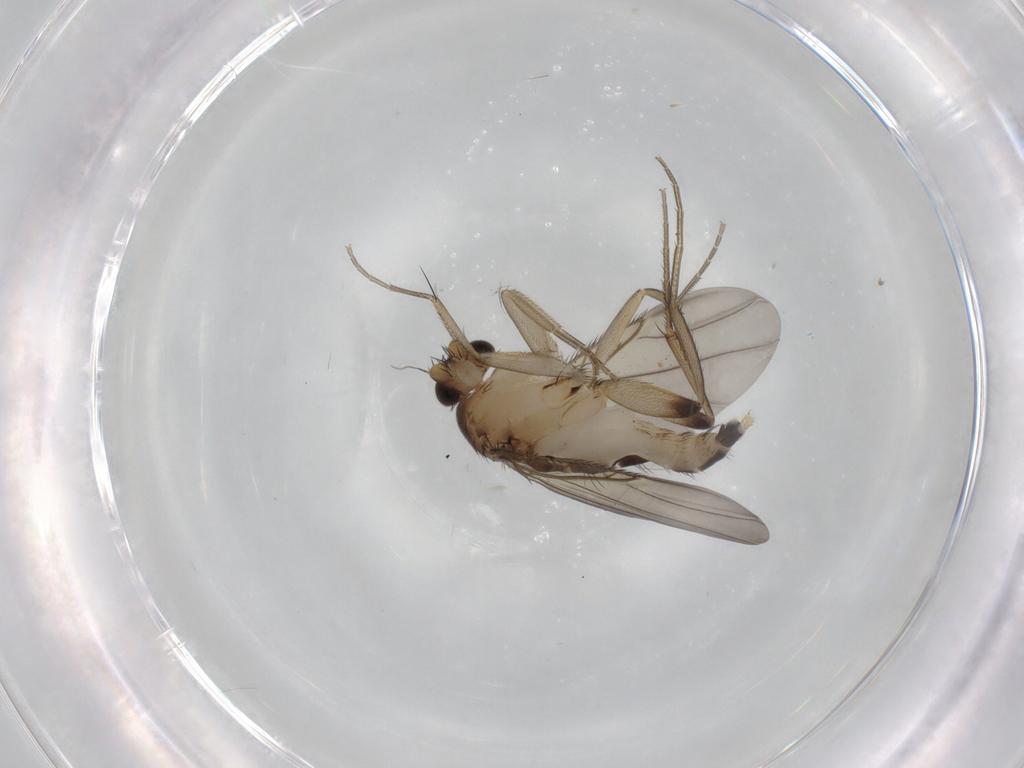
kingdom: Animalia
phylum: Arthropoda
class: Insecta
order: Diptera
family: Phoridae
